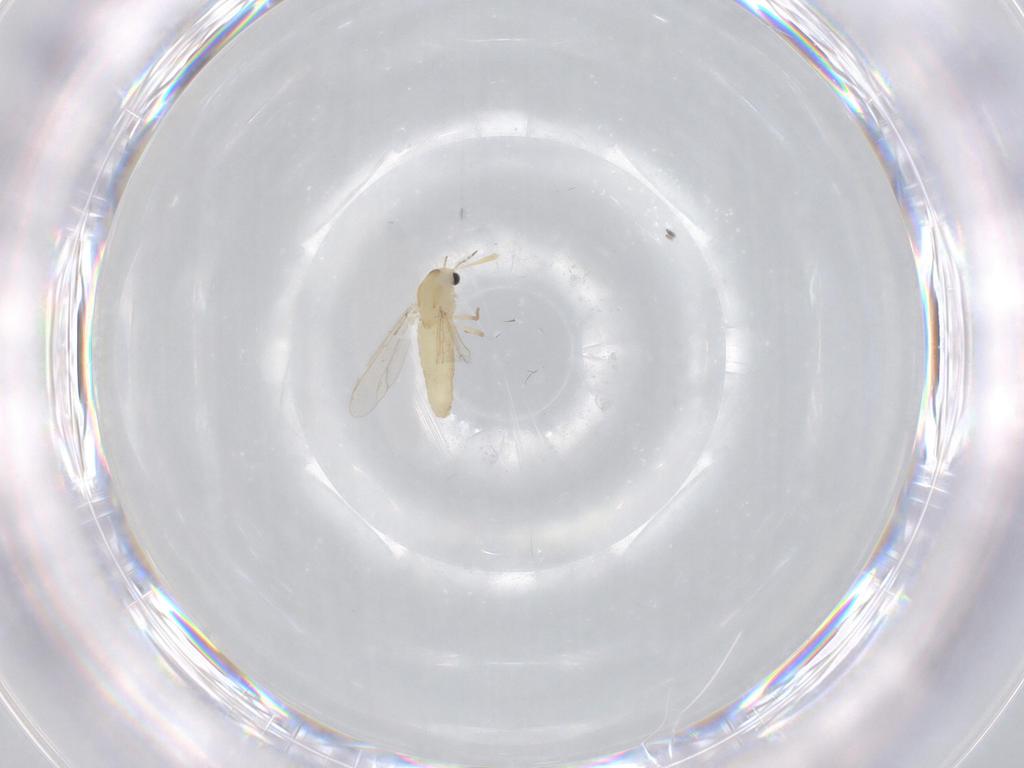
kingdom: Animalia
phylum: Arthropoda
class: Insecta
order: Diptera
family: Chironomidae
